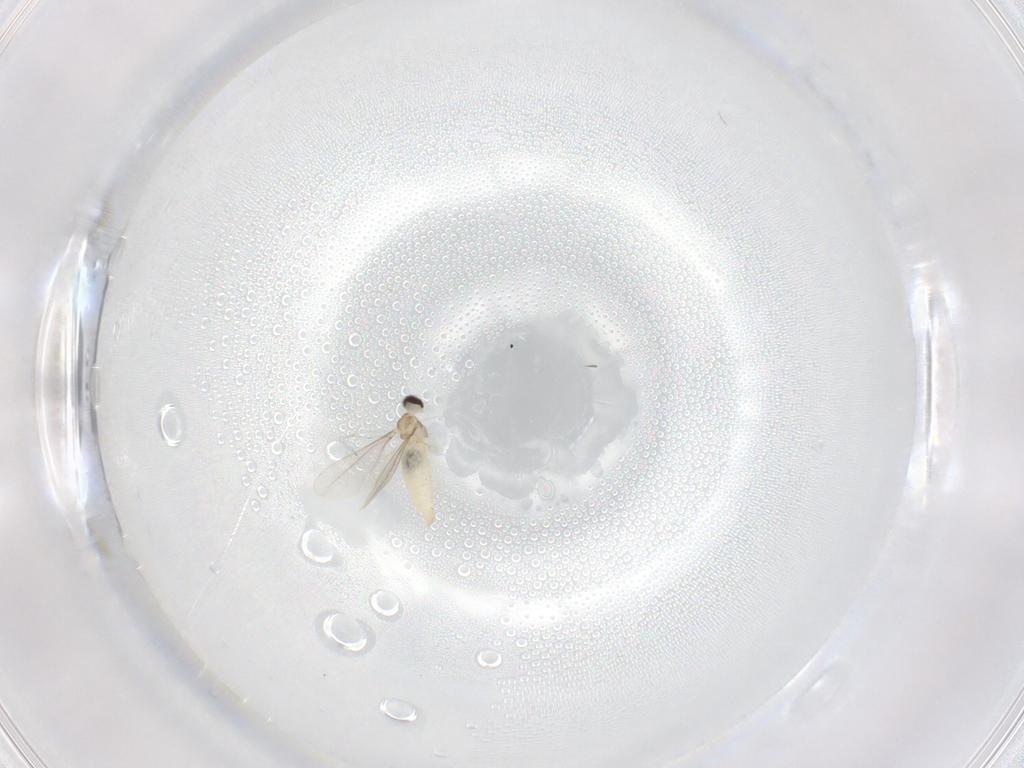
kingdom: Animalia
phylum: Arthropoda
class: Insecta
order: Diptera
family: Cecidomyiidae
